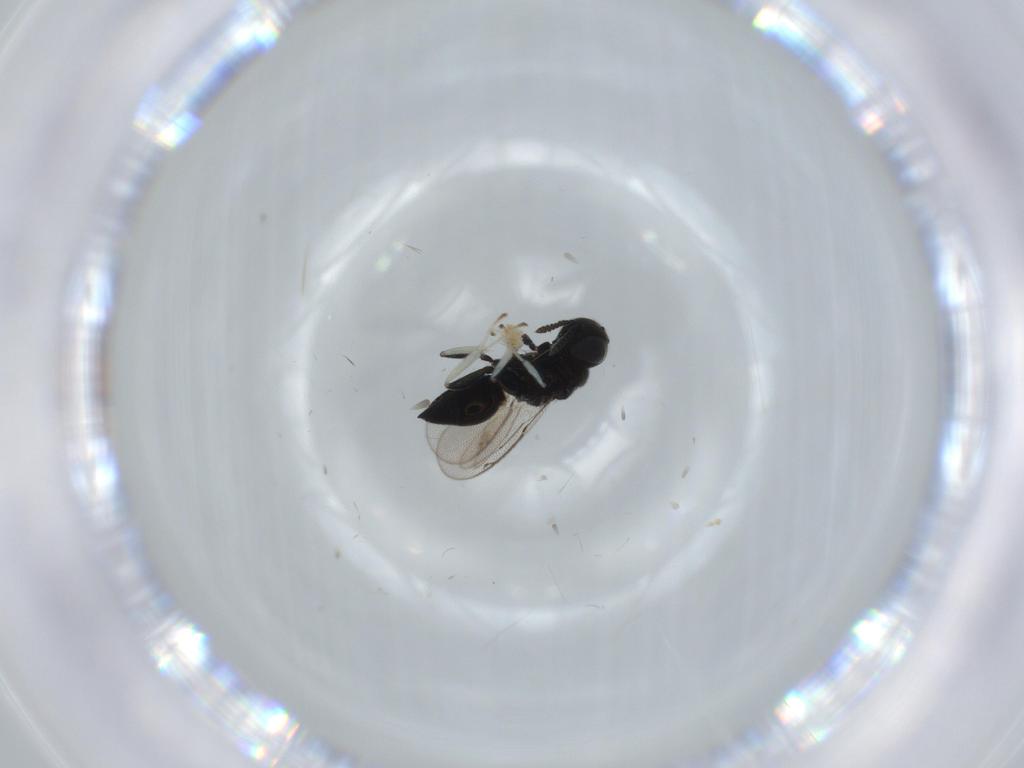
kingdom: Animalia
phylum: Arthropoda
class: Insecta
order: Hymenoptera
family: Herbertiidae
